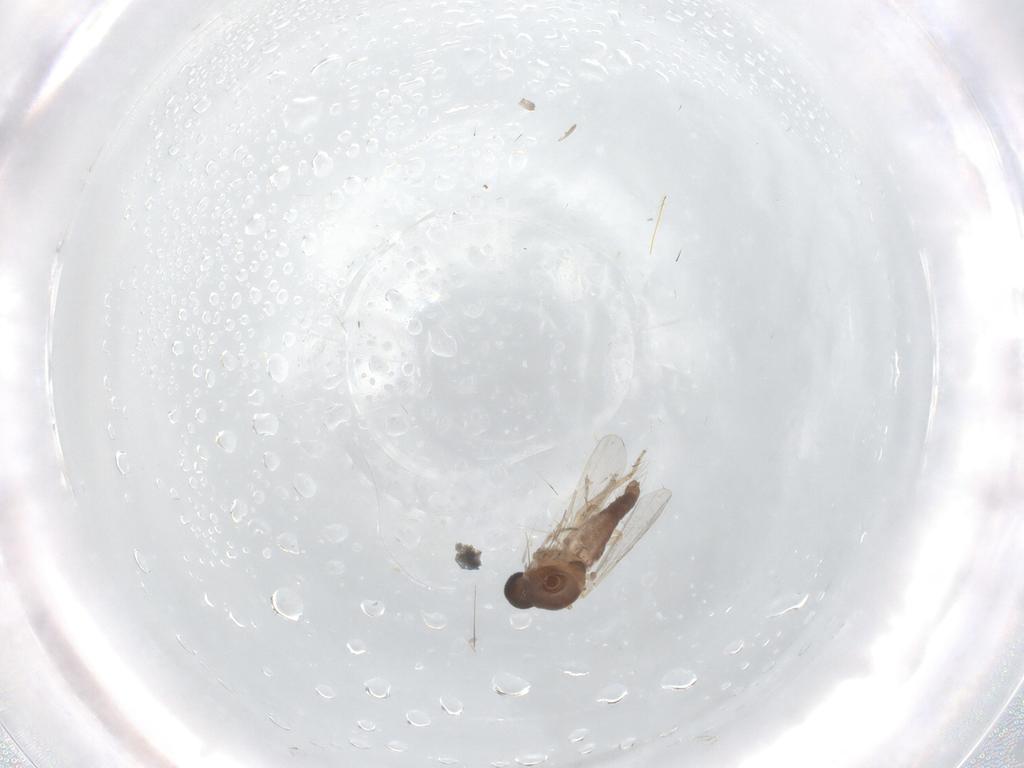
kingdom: Animalia
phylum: Arthropoda
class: Insecta
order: Diptera
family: Ceratopogonidae
